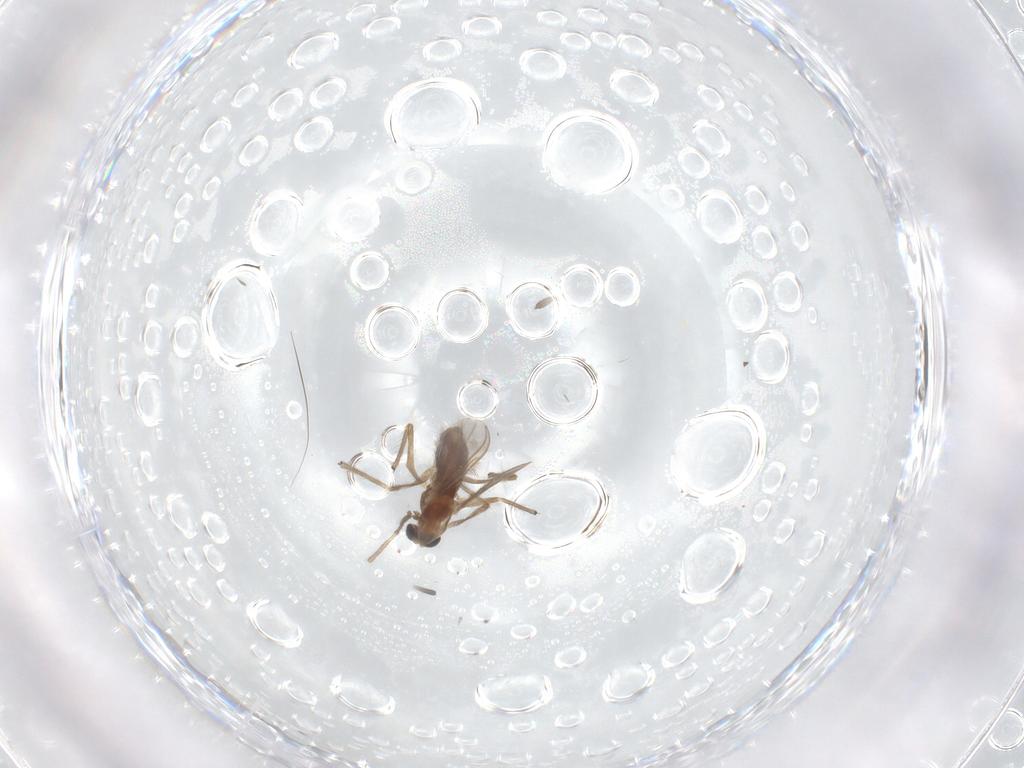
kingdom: Animalia
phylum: Arthropoda
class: Insecta
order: Diptera
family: Chironomidae
